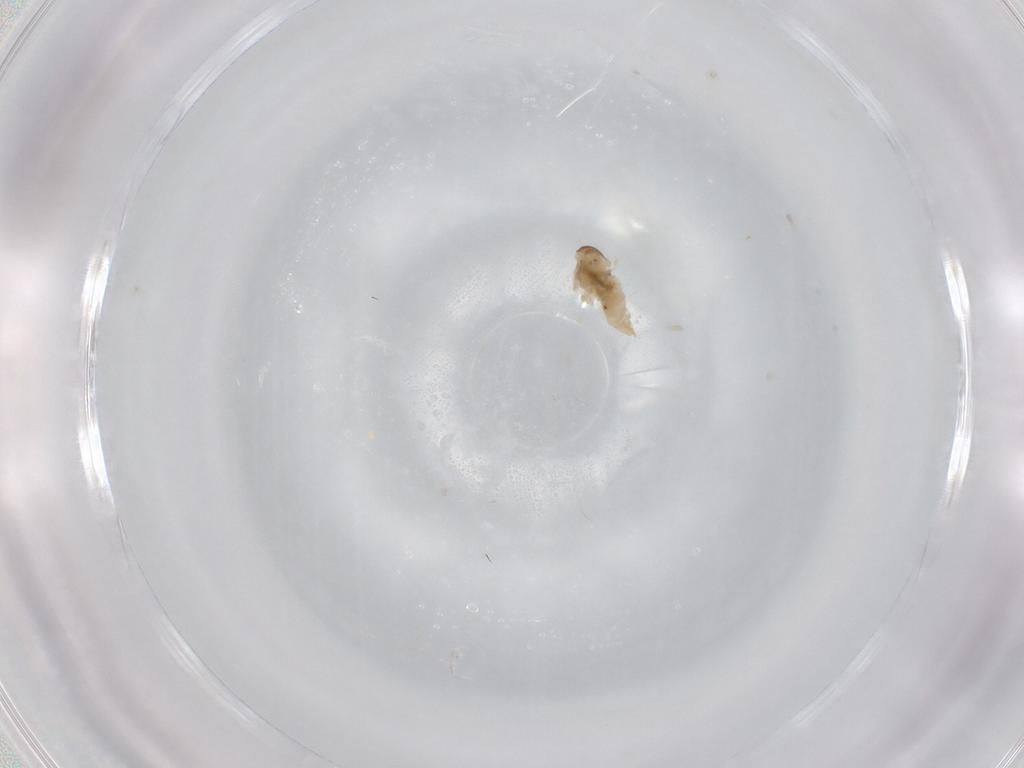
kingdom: Animalia
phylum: Arthropoda
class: Insecta
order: Diptera
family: Cecidomyiidae
